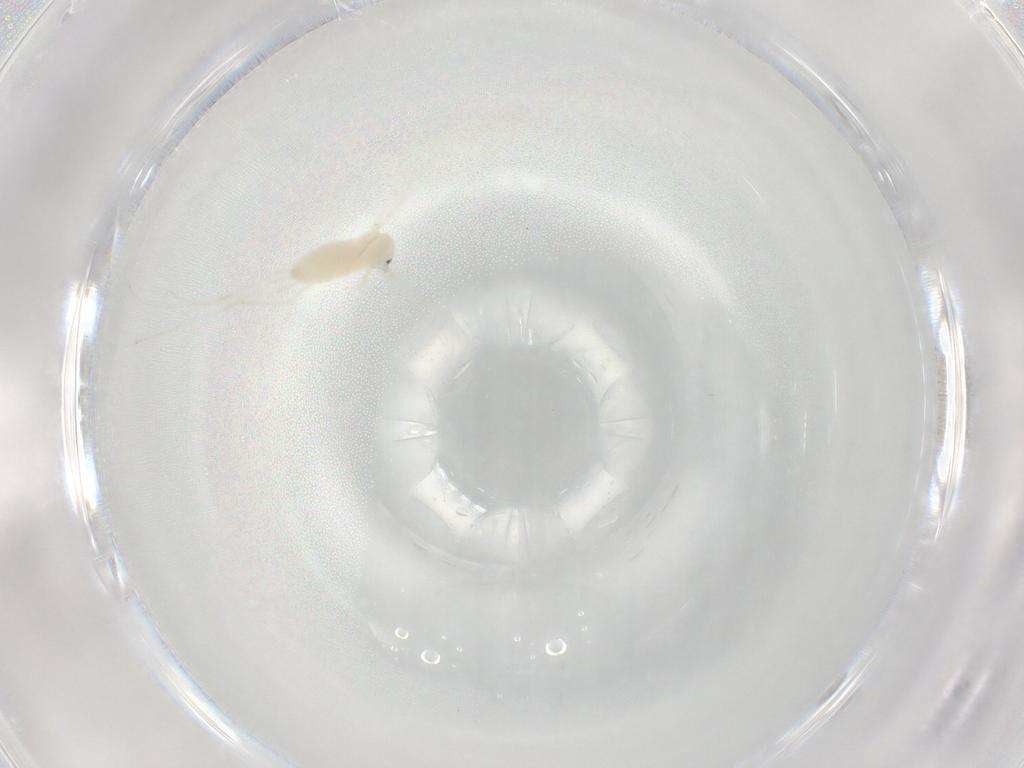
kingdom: Animalia
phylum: Arthropoda
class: Insecta
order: Diptera
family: Cecidomyiidae
